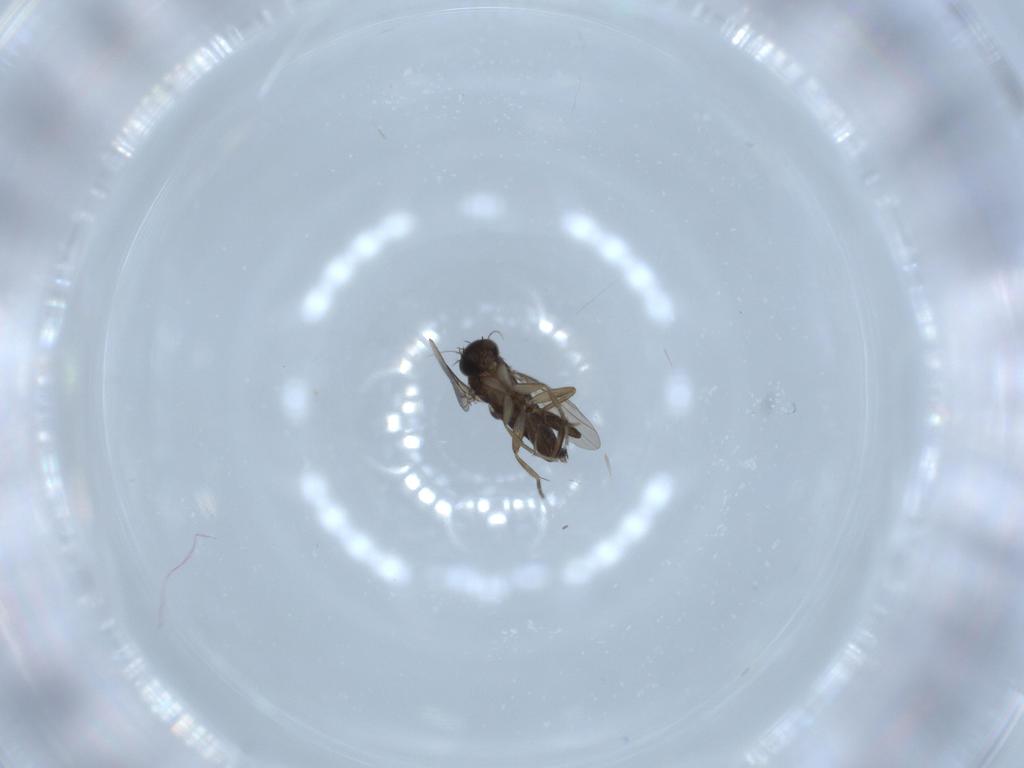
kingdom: Animalia
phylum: Arthropoda
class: Insecta
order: Diptera
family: Phoridae
